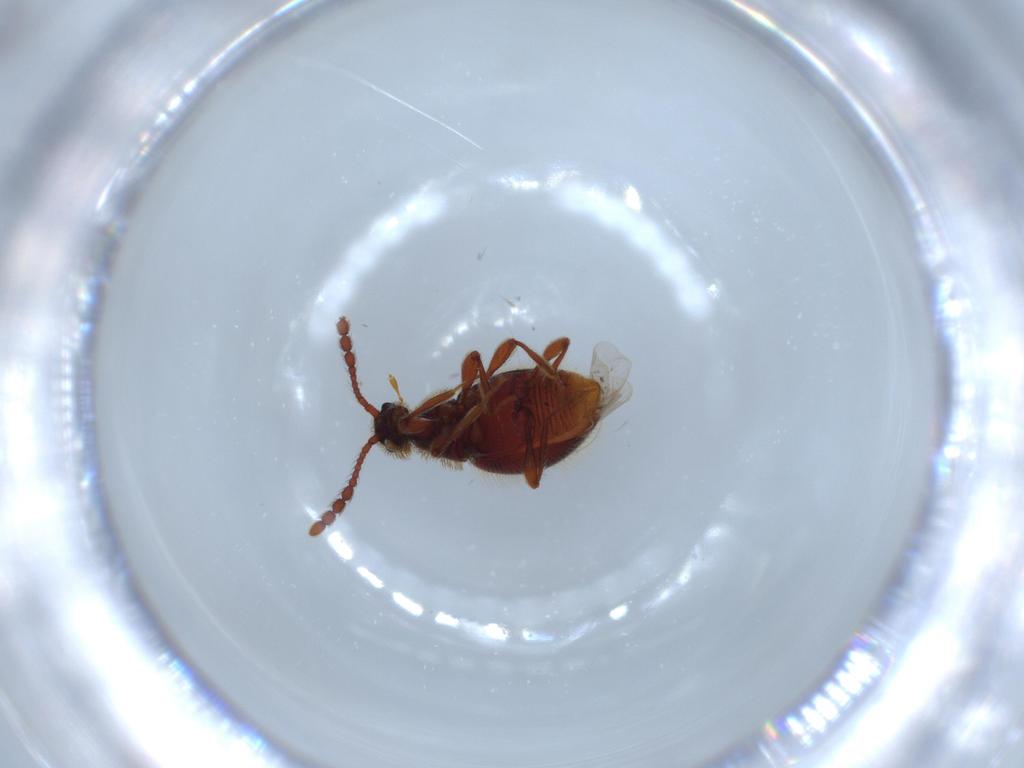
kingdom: Animalia
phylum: Arthropoda
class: Insecta
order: Coleoptera
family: Staphylinidae
